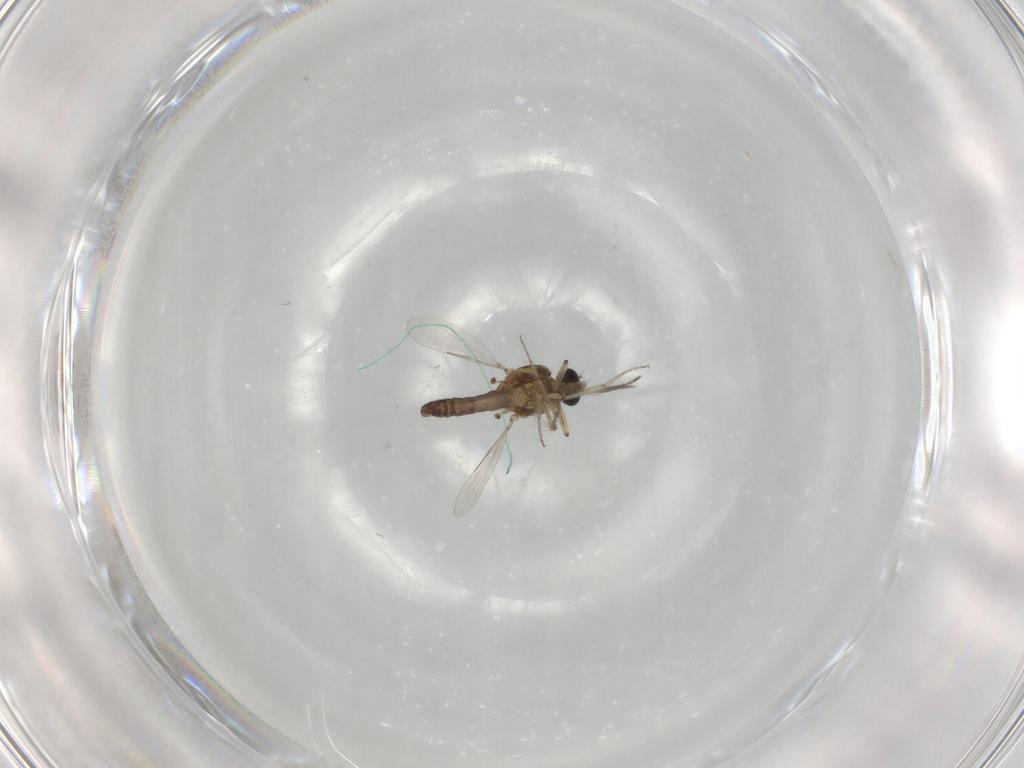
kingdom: Animalia
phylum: Arthropoda
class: Insecta
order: Diptera
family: Ceratopogonidae
